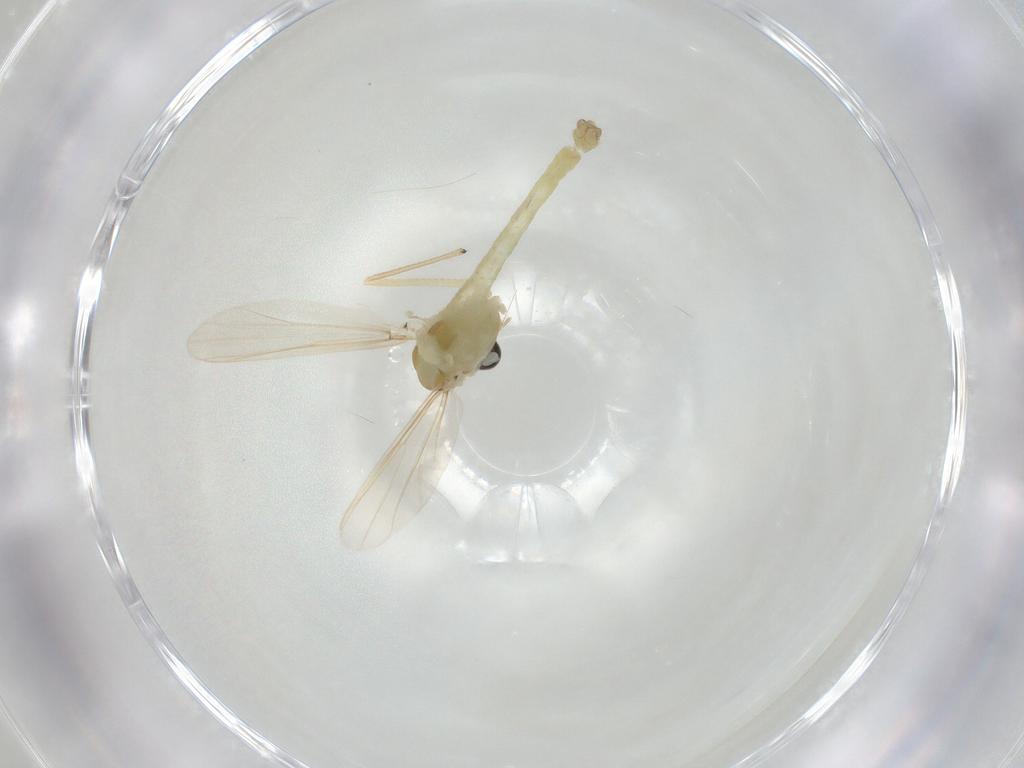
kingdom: Animalia
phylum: Arthropoda
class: Insecta
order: Diptera
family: Chironomidae
